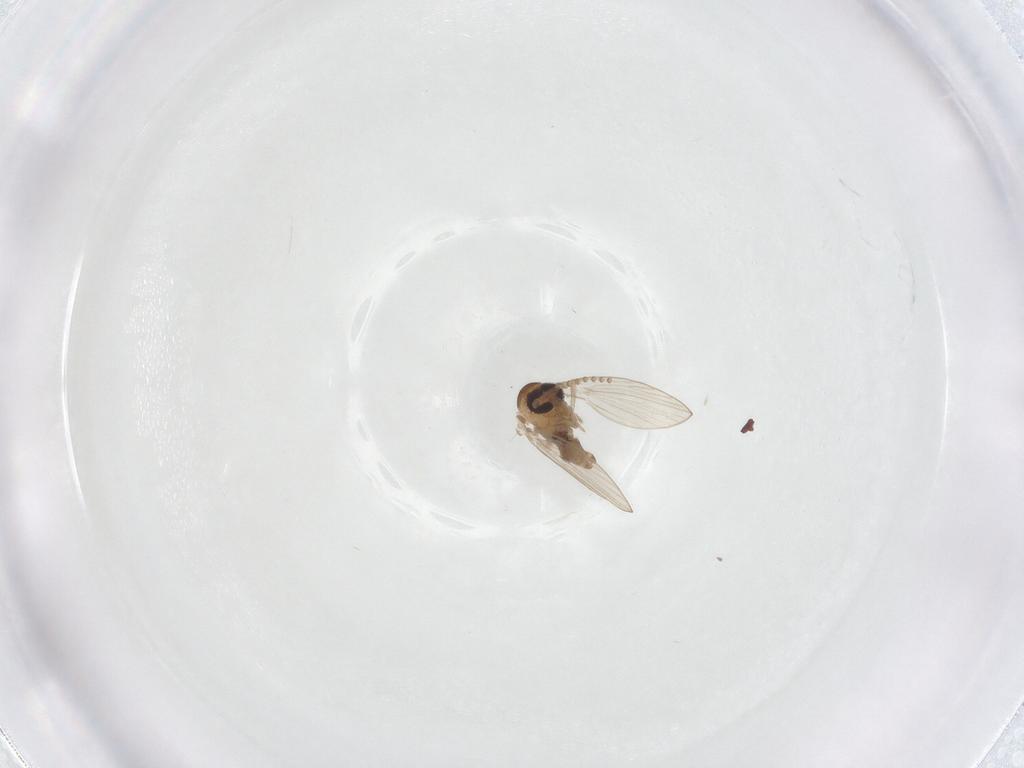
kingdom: Animalia
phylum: Arthropoda
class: Insecta
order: Diptera
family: Psychodidae
